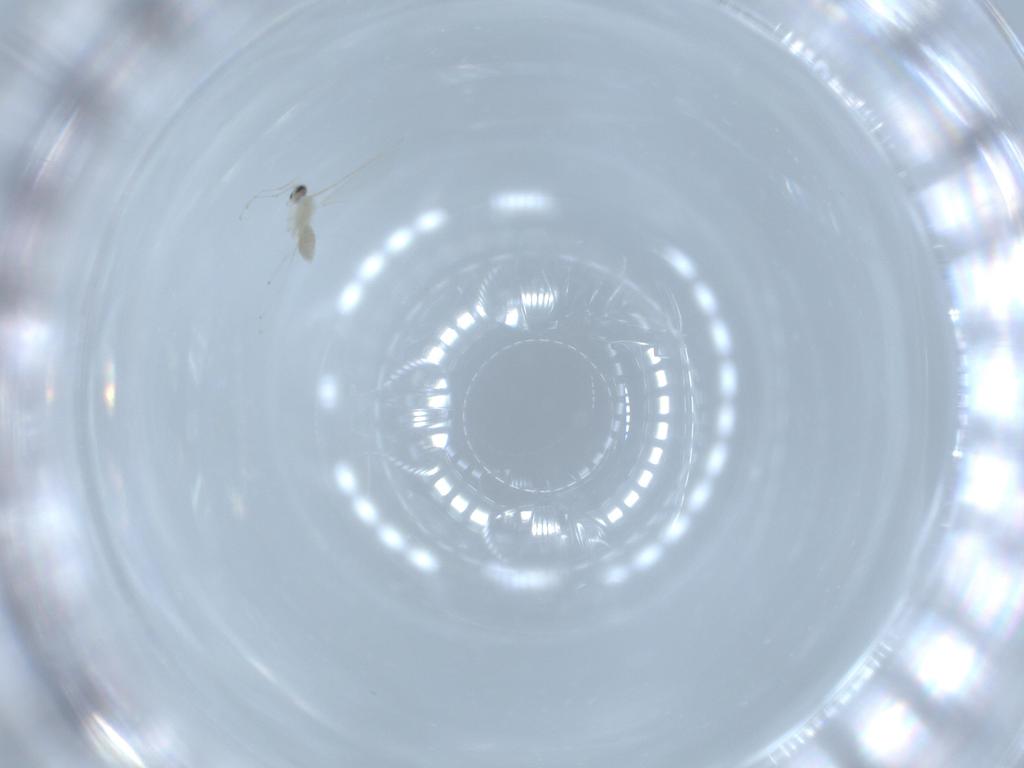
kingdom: Animalia
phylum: Arthropoda
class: Insecta
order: Diptera
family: Cecidomyiidae
